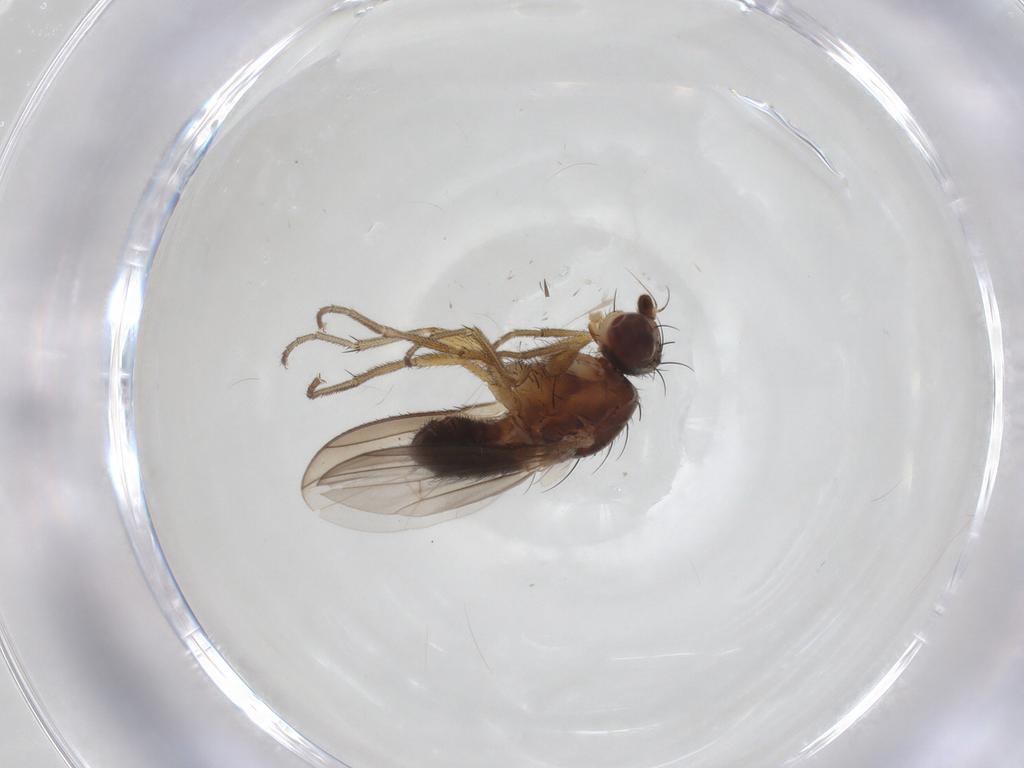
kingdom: Animalia
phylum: Arthropoda
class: Insecta
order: Diptera
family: Heleomyzidae
